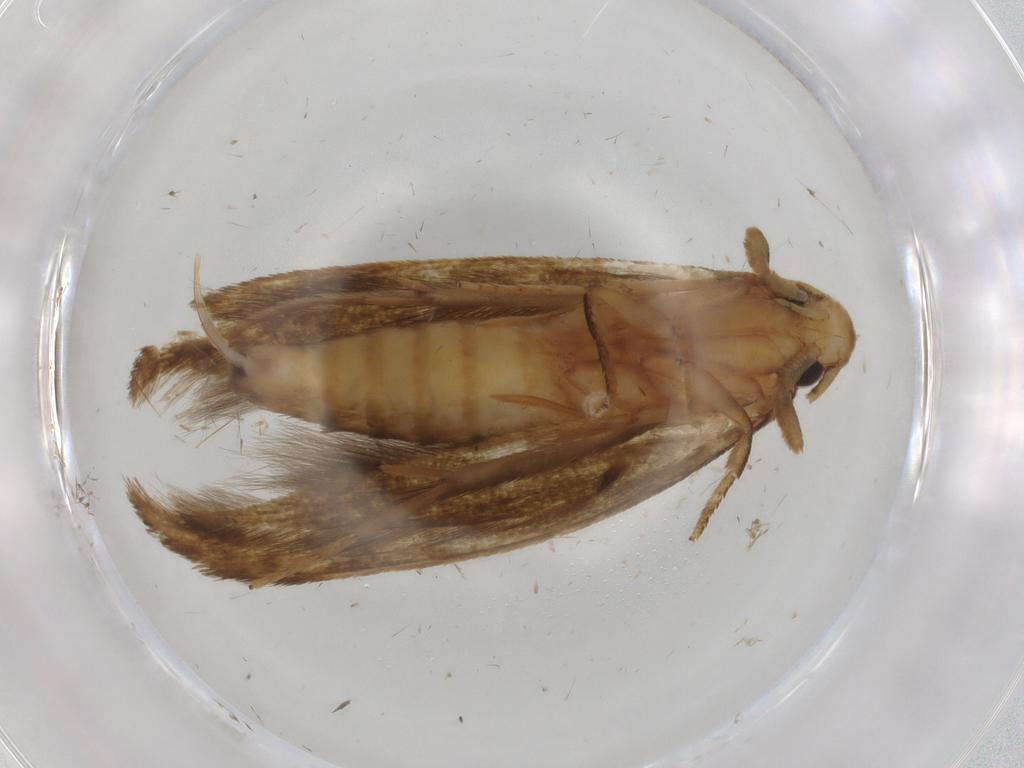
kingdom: Animalia
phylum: Arthropoda
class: Insecta
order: Lepidoptera
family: Tineidae
